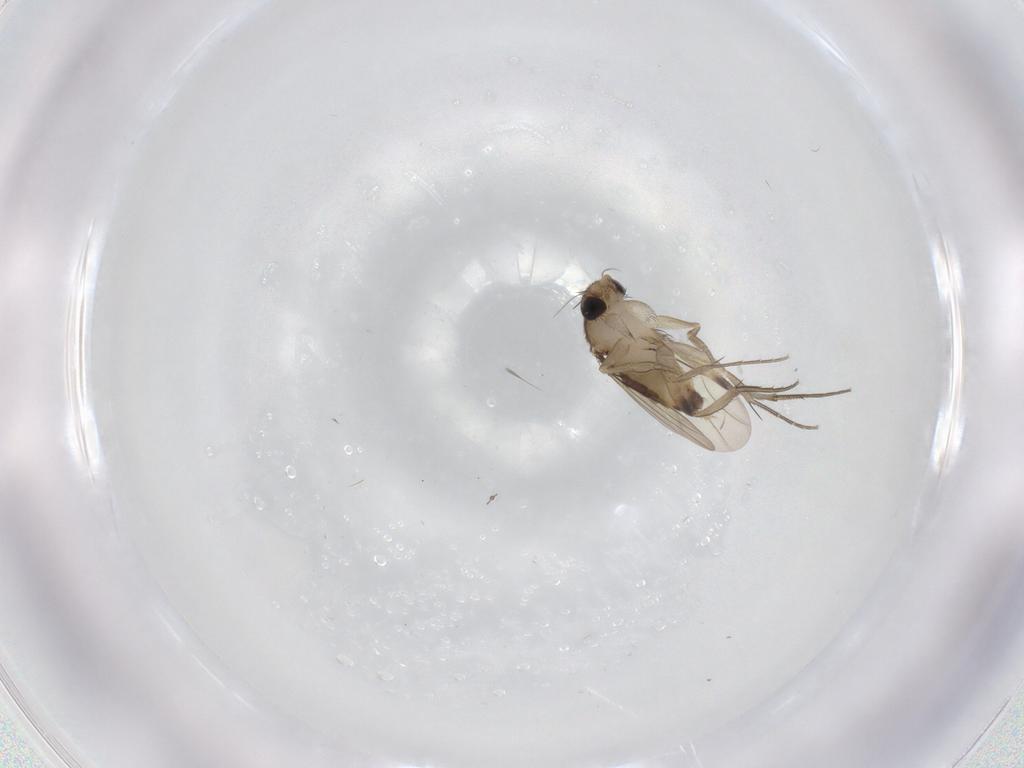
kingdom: Animalia
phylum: Arthropoda
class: Insecta
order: Diptera
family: Phoridae
